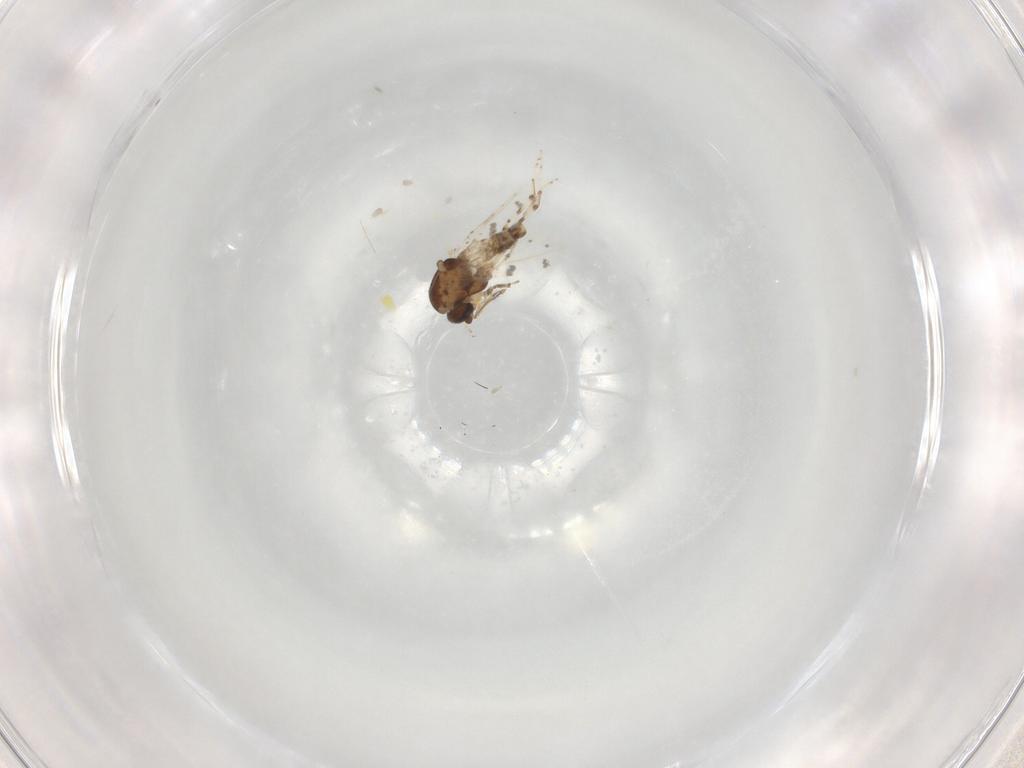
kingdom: Animalia
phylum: Arthropoda
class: Insecta
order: Diptera
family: Ceratopogonidae
